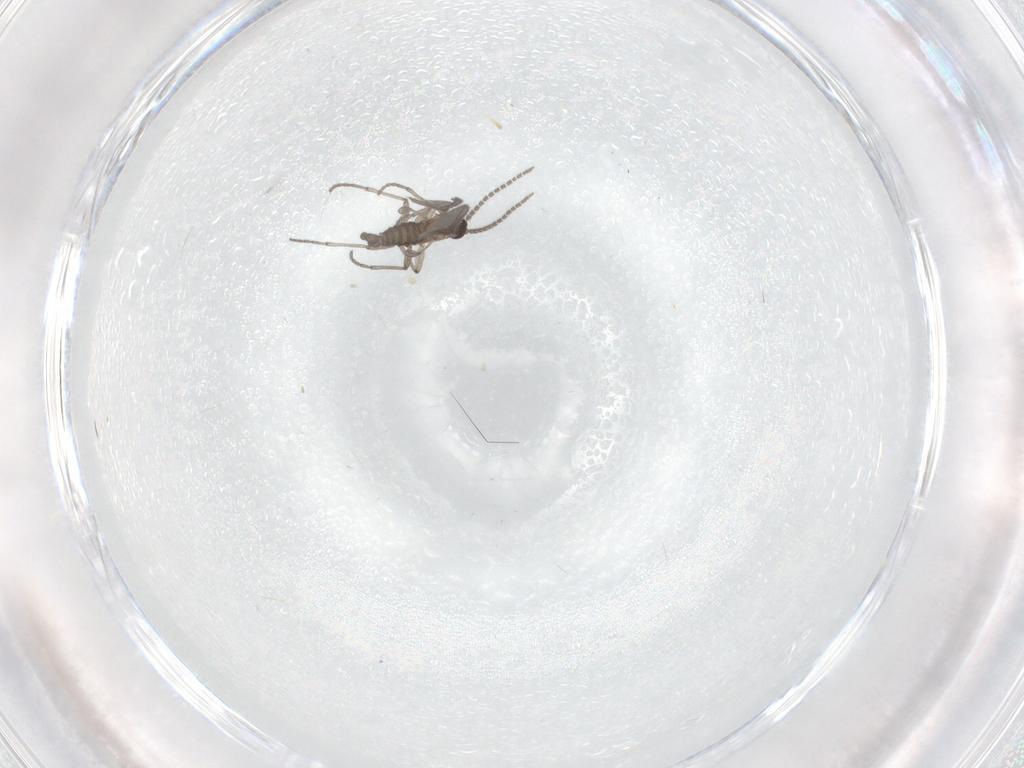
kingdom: Animalia
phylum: Arthropoda
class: Insecta
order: Diptera
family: Sciaridae
